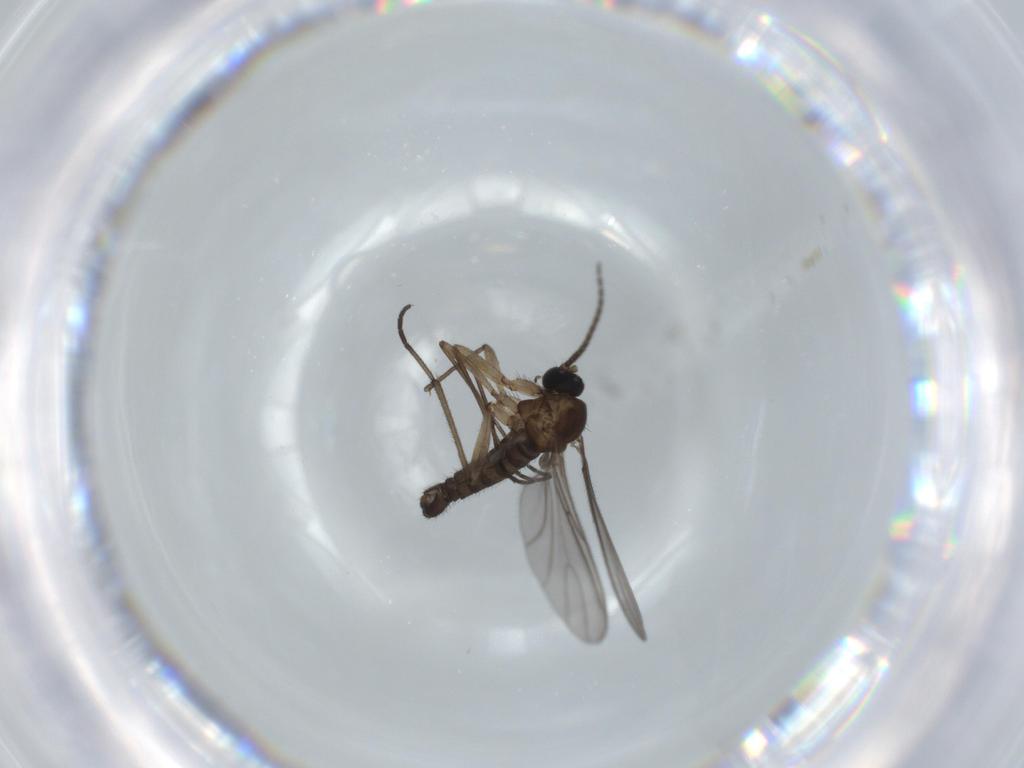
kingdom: Animalia
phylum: Arthropoda
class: Insecta
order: Diptera
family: Sciaridae
